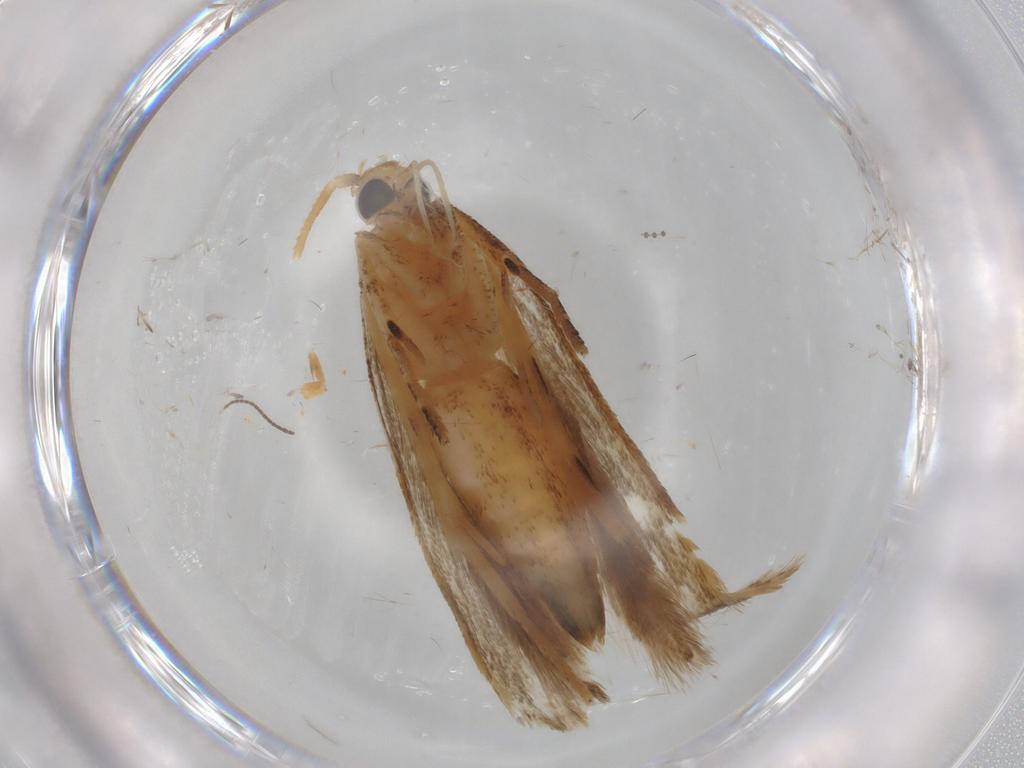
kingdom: Animalia
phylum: Arthropoda
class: Insecta
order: Lepidoptera
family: Gelechiidae
